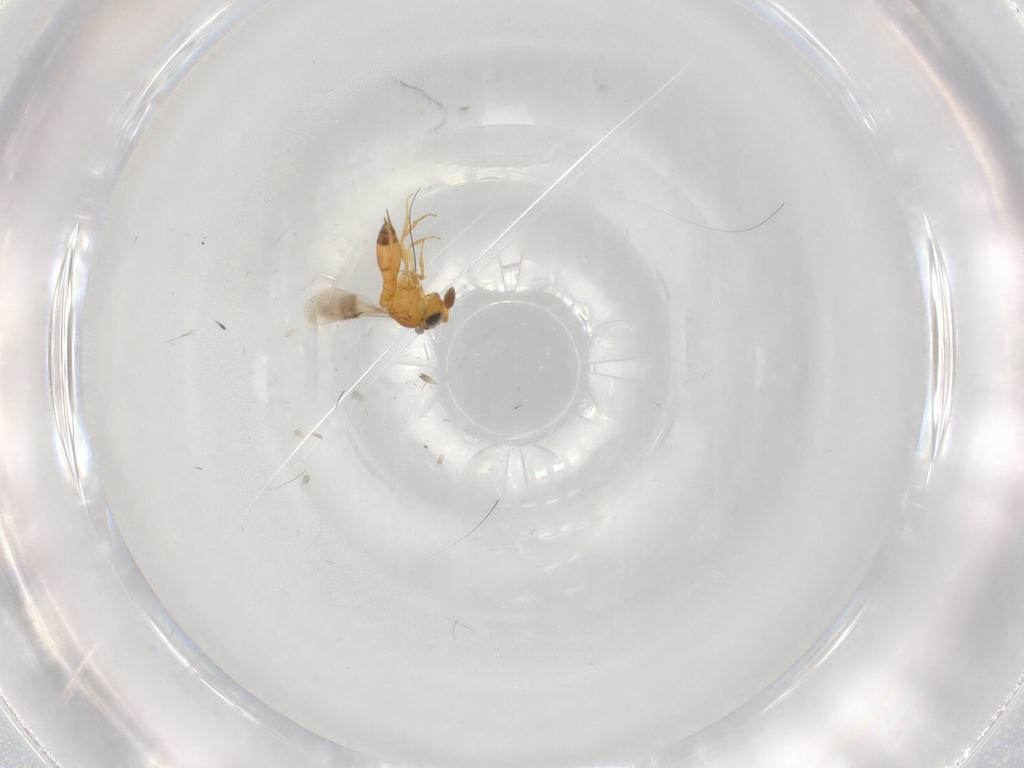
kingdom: Animalia
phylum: Arthropoda
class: Insecta
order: Hymenoptera
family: Scelionidae
